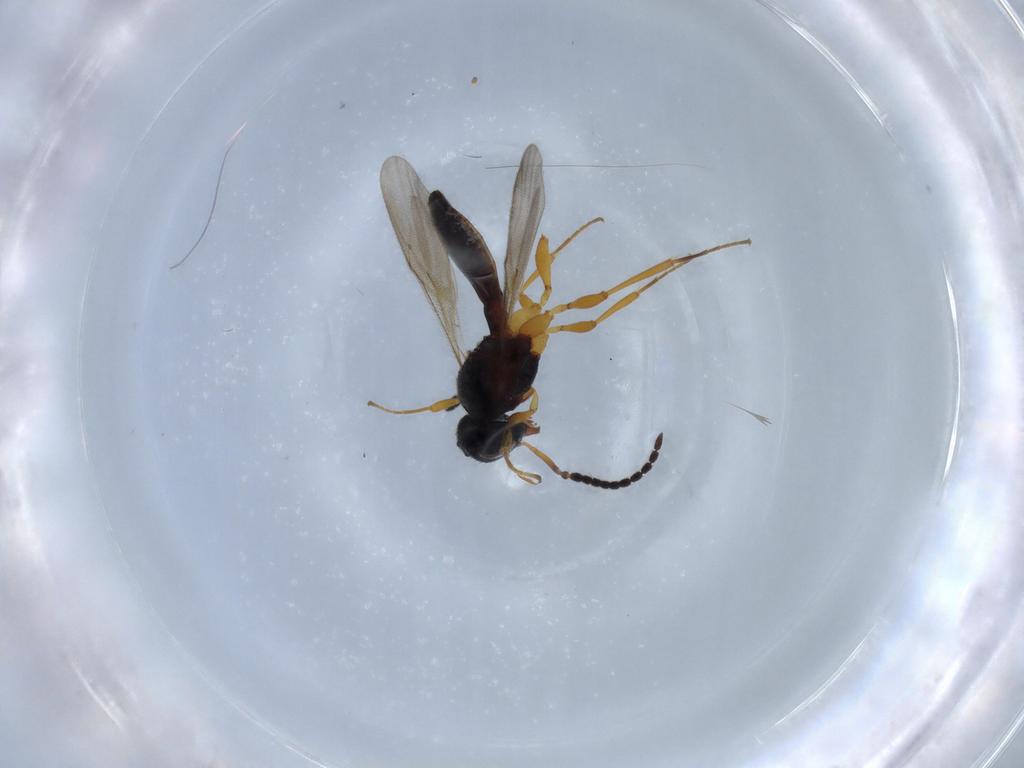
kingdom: Animalia
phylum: Arthropoda
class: Insecta
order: Hymenoptera
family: Scelionidae
